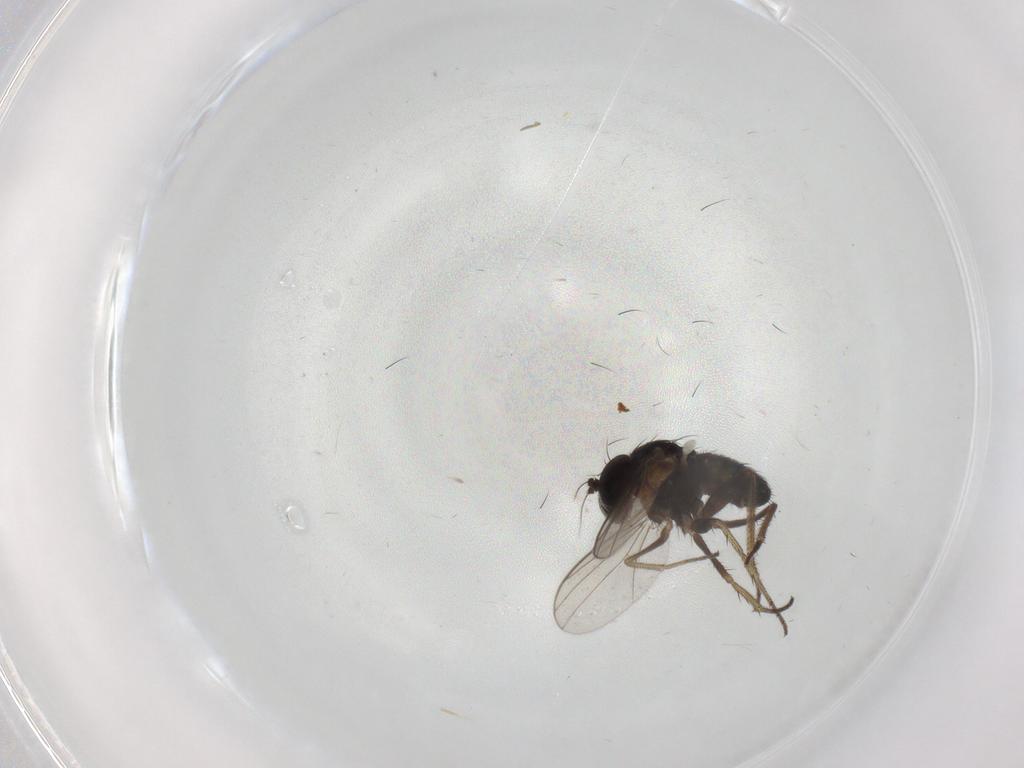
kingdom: Animalia
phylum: Arthropoda
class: Insecta
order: Diptera
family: Dolichopodidae
